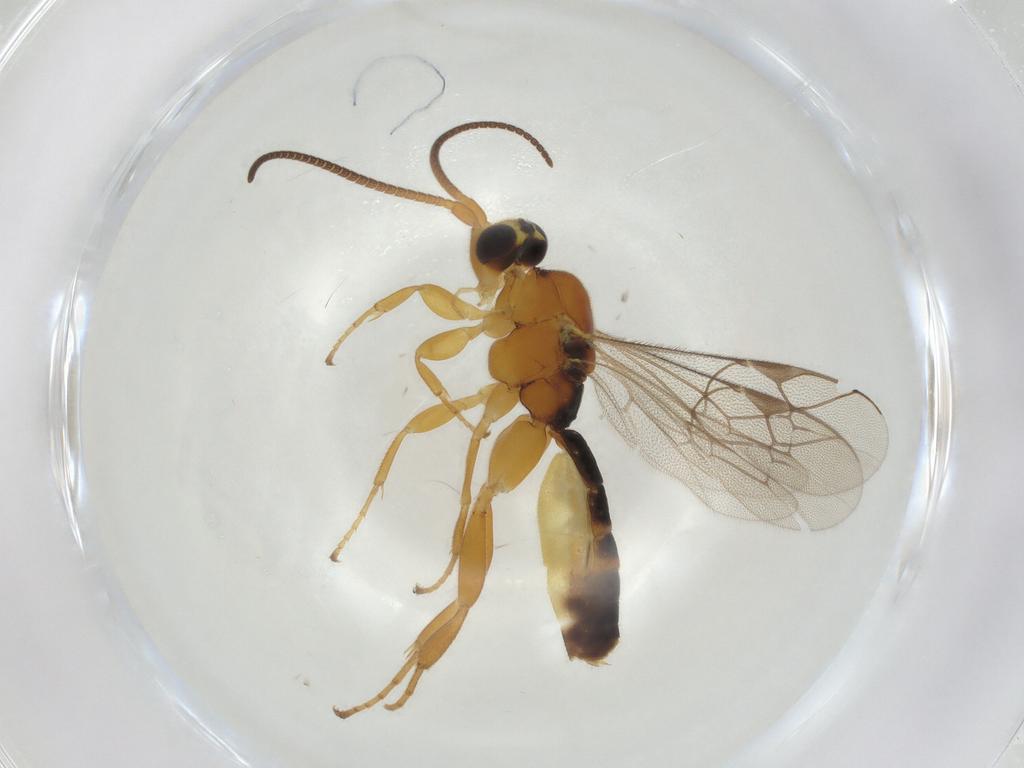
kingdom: Animalia
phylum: Arthropoda
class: Insecta
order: Hymenoptera
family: Ichneumonidae
